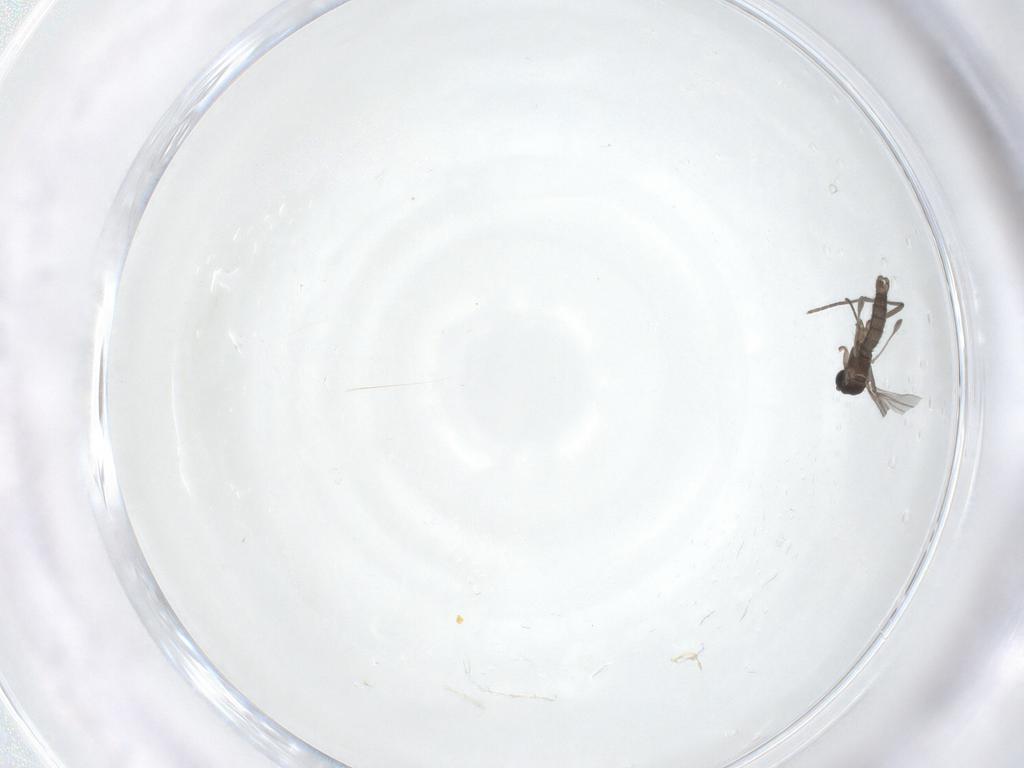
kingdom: Animalia
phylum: Arthropoda
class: Insecta
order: Diptera
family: Sciaridae
